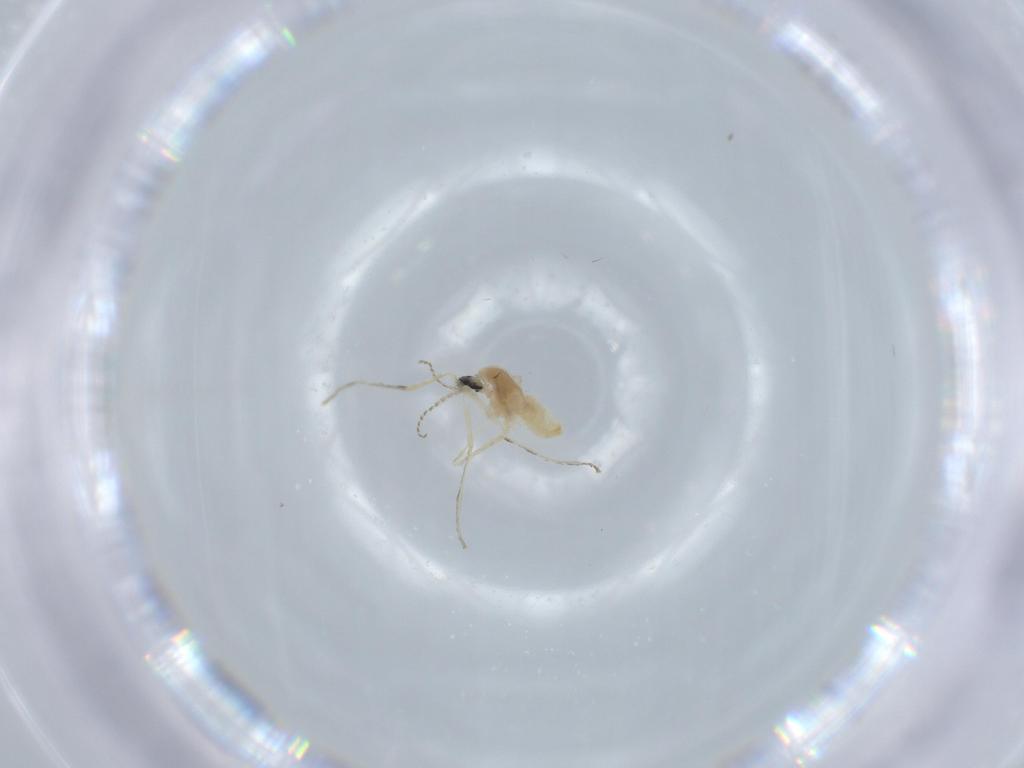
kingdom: Animalia
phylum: Arthropoda
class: Insecta
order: Diptera
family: Cecidomyiidae
